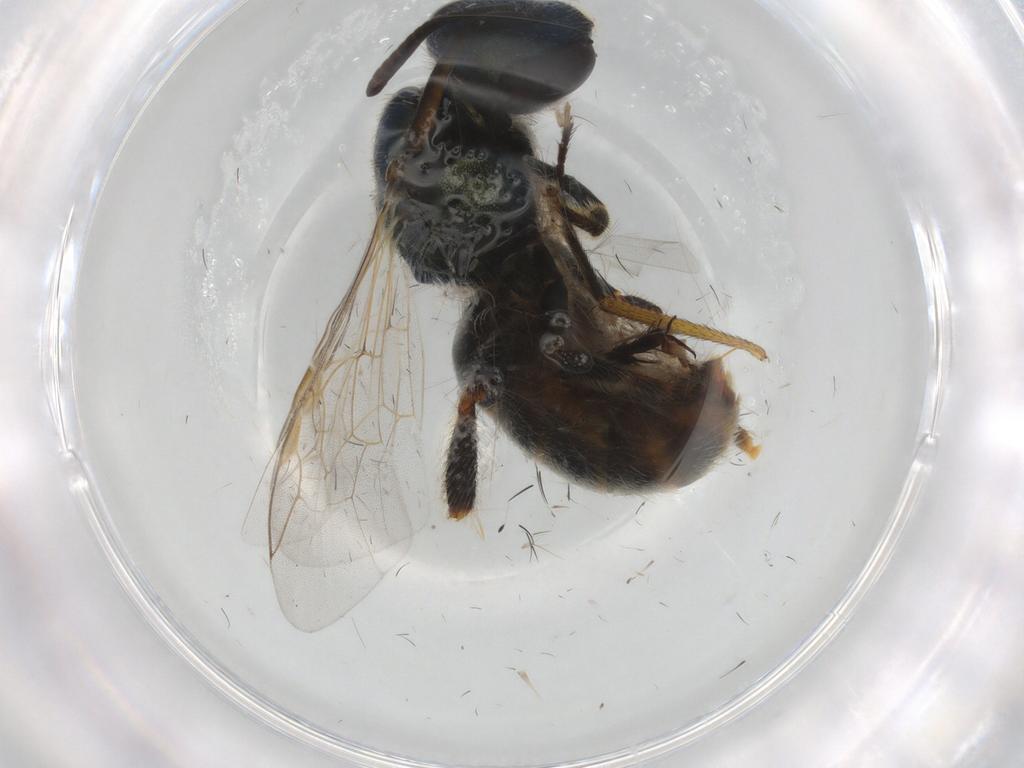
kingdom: Animalia
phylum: Arthropoda
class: Insecta
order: Hymenoptera
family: Halictidae
